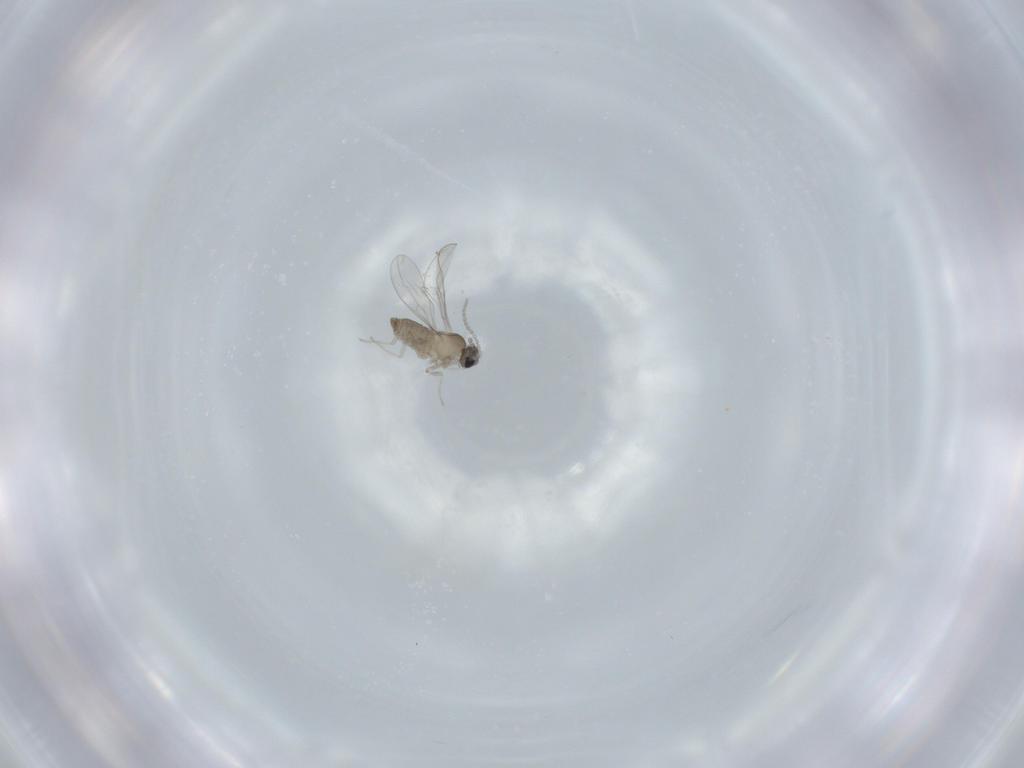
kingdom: Animalia
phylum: Arthropoda
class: Insecta
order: Diptera
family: Cecidomyiidae
